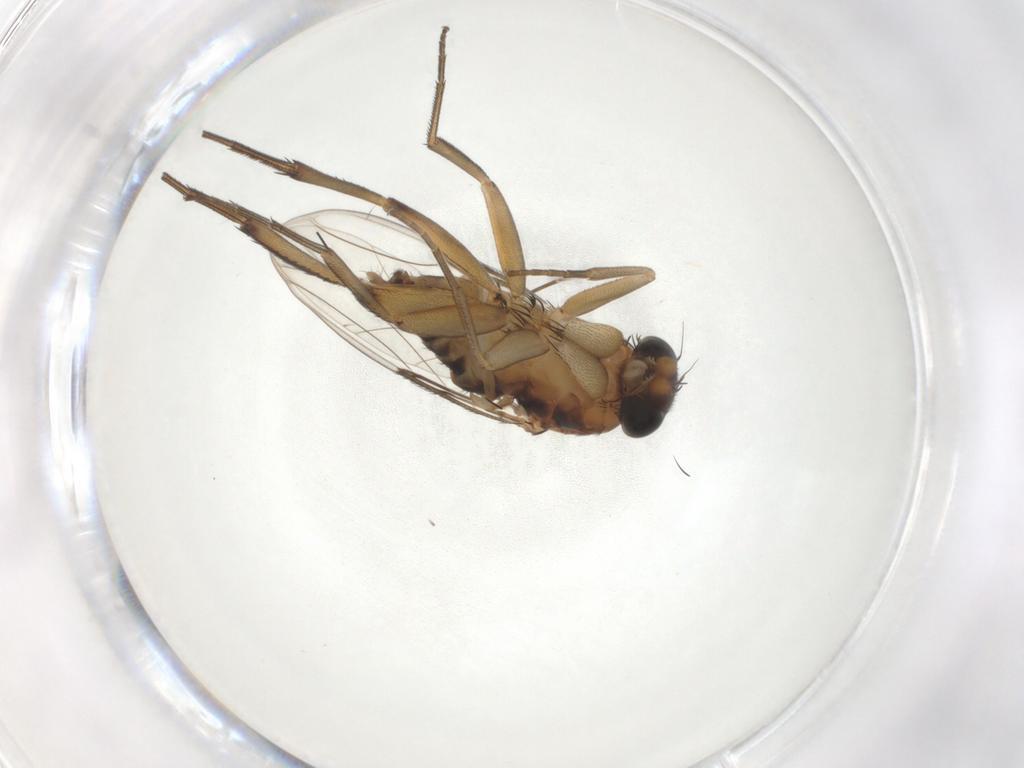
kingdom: Animalia
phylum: Arthropoda
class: Insecta
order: Diptera
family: Phoridae
